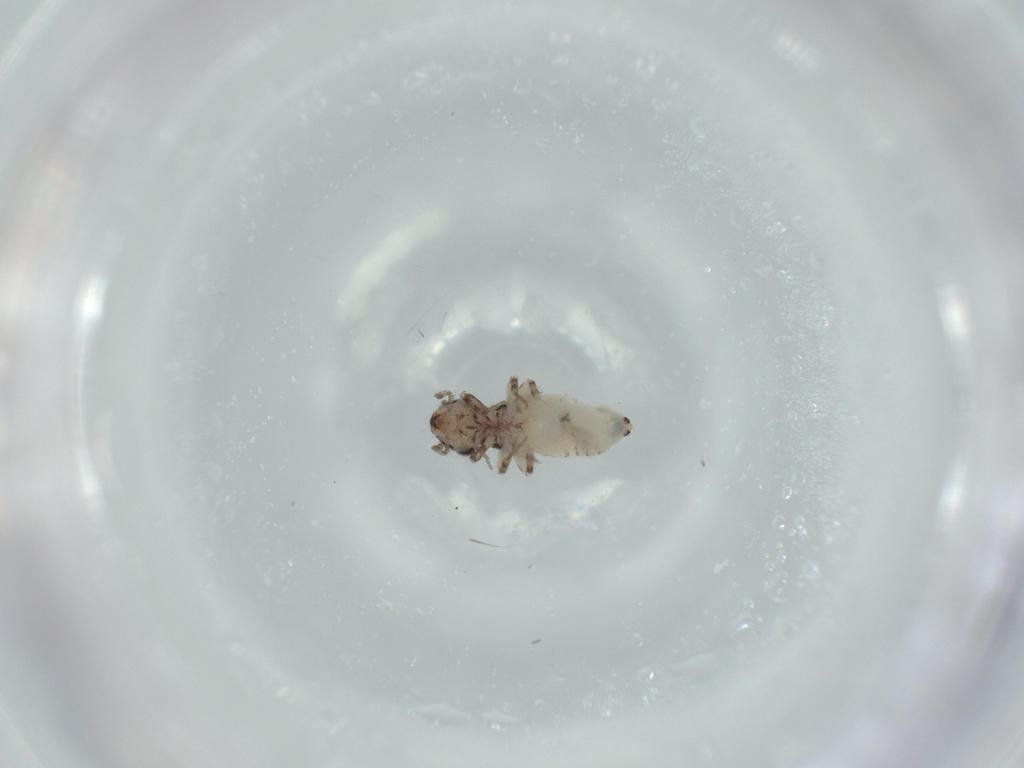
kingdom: Animalia
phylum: Arthropoda
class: Insecta
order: Psocodea
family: Lepidopsocidae
